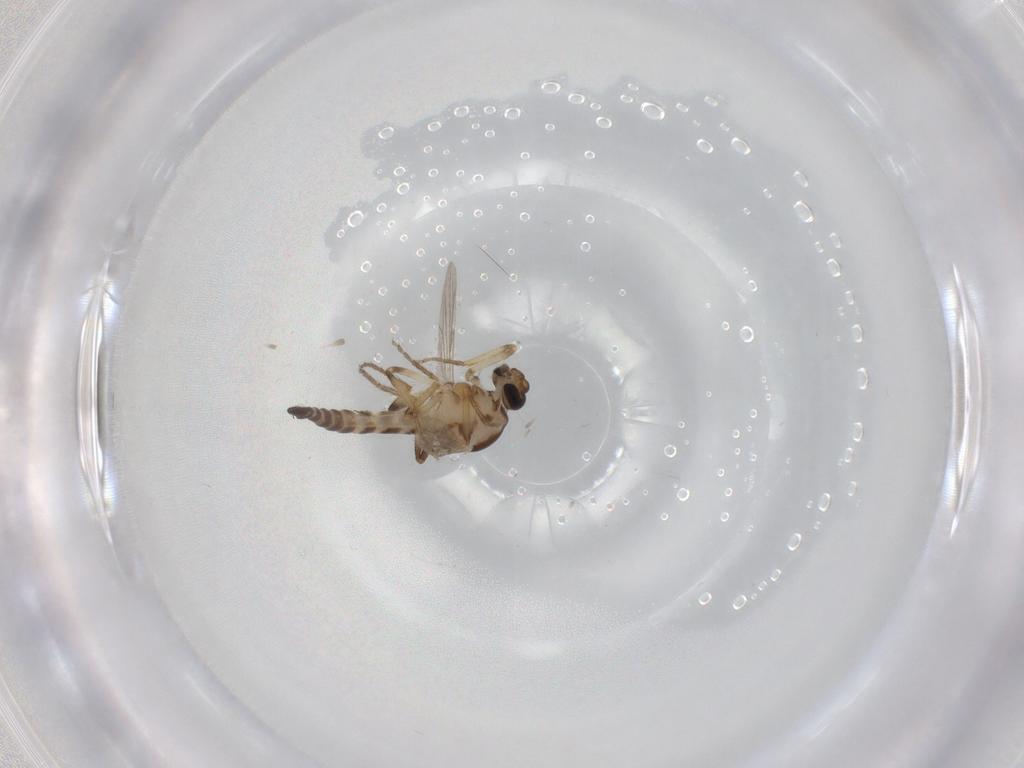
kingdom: Animalia
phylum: Arthropoda
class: Insecta
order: Diptera
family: Ceratopogonidae
